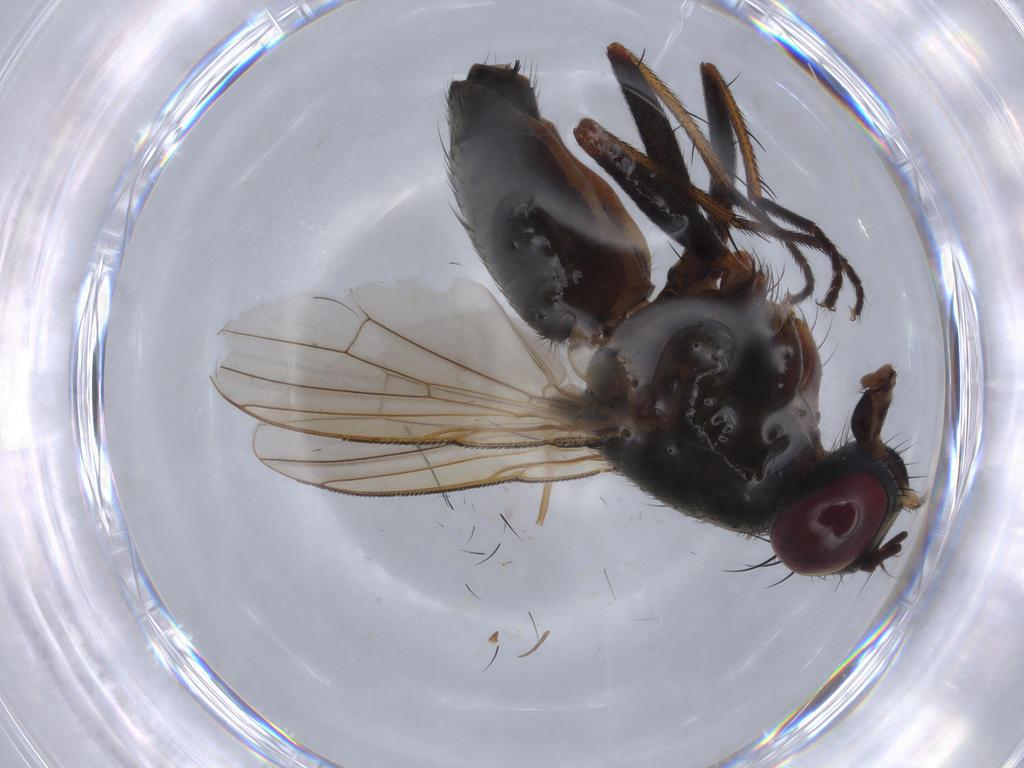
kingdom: Animalia
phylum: Arthropoda
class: Insecta
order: Diptera
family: Muscidae
